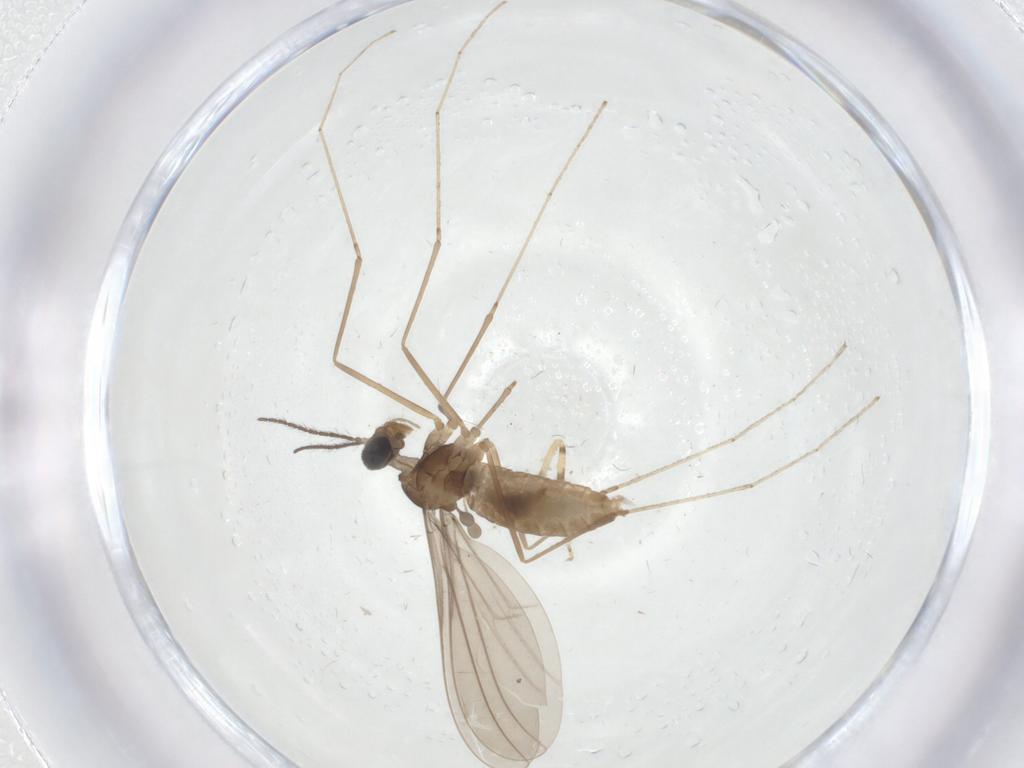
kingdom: Animalia
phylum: Arthropoda
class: Insecta
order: Diptera
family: Cecidomyiidae
